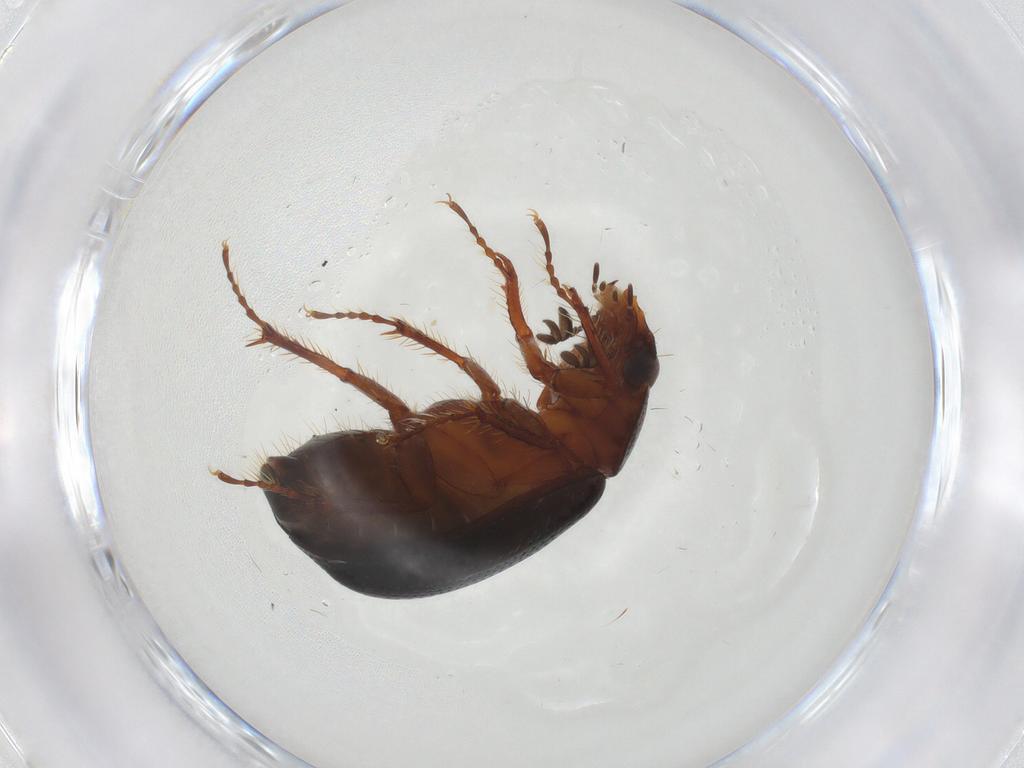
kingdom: Animalia
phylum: Arthropoda
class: Insecta
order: Coleoptera
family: Hybosoridae
